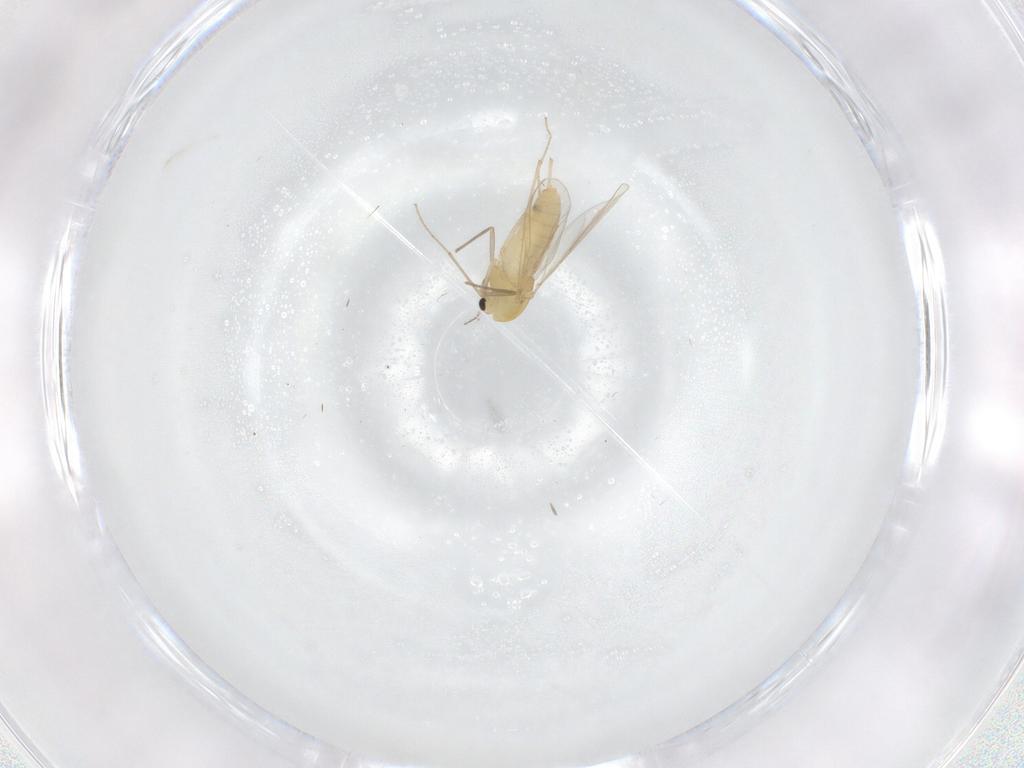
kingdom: Animalia
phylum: Arthropoda
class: Insecta
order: Diptera
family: Chironomidae
